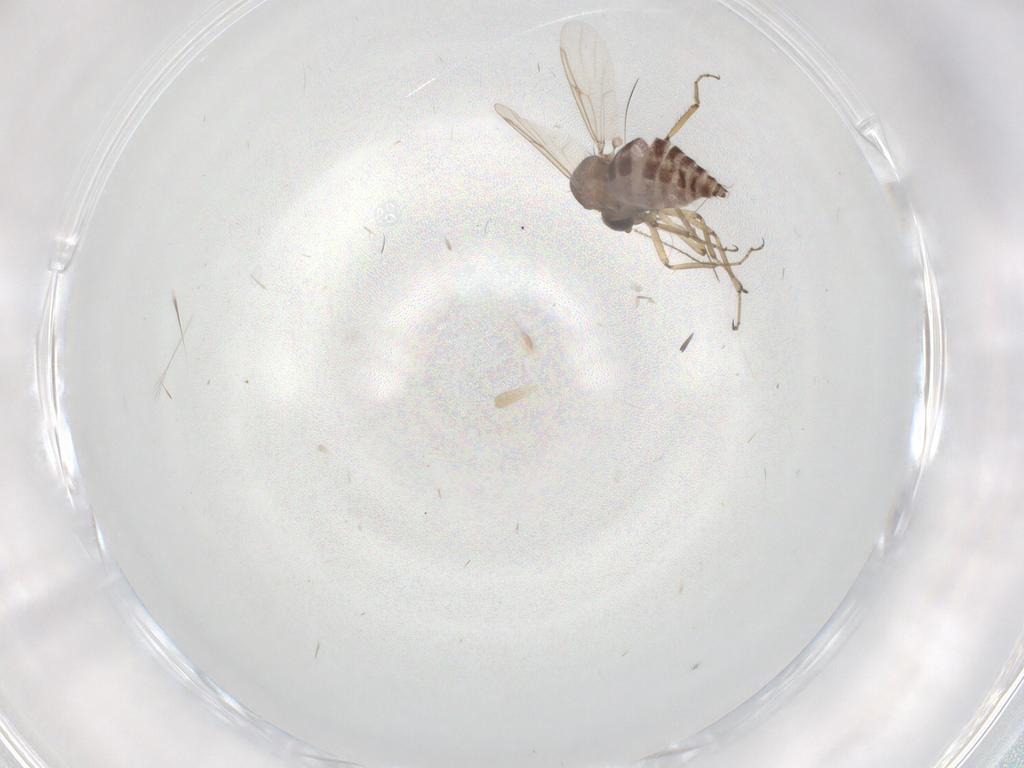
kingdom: Animalia
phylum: Arthropoda
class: Insecta
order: Diptera
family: Ceratopogonidae
